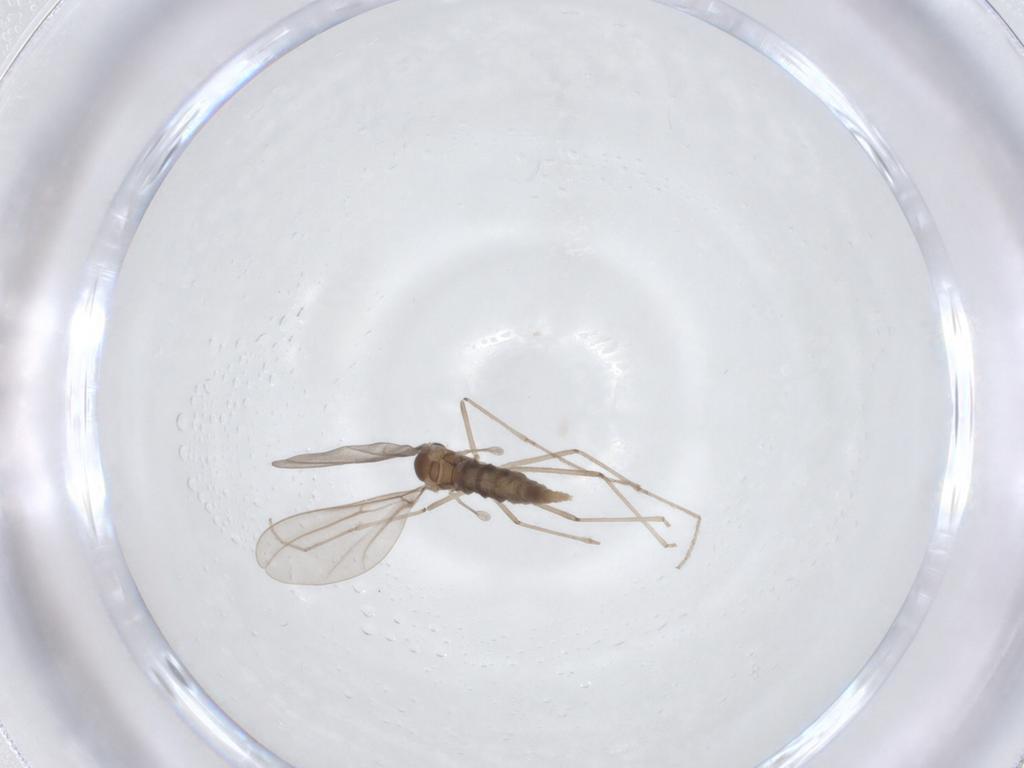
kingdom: Animalia
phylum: Arthropoda
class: Insecta
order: Diptera
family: Cecidomyiidae
